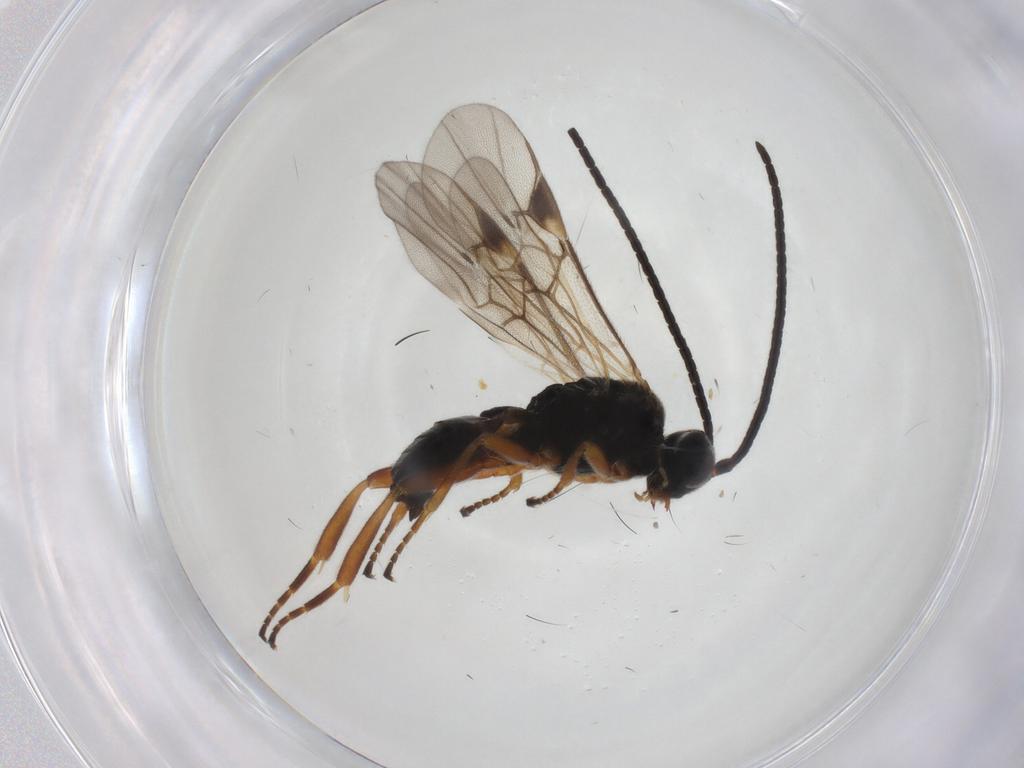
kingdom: Animalia
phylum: Arthropoda
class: Insecta
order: Hymenoptera
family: Braconidae
